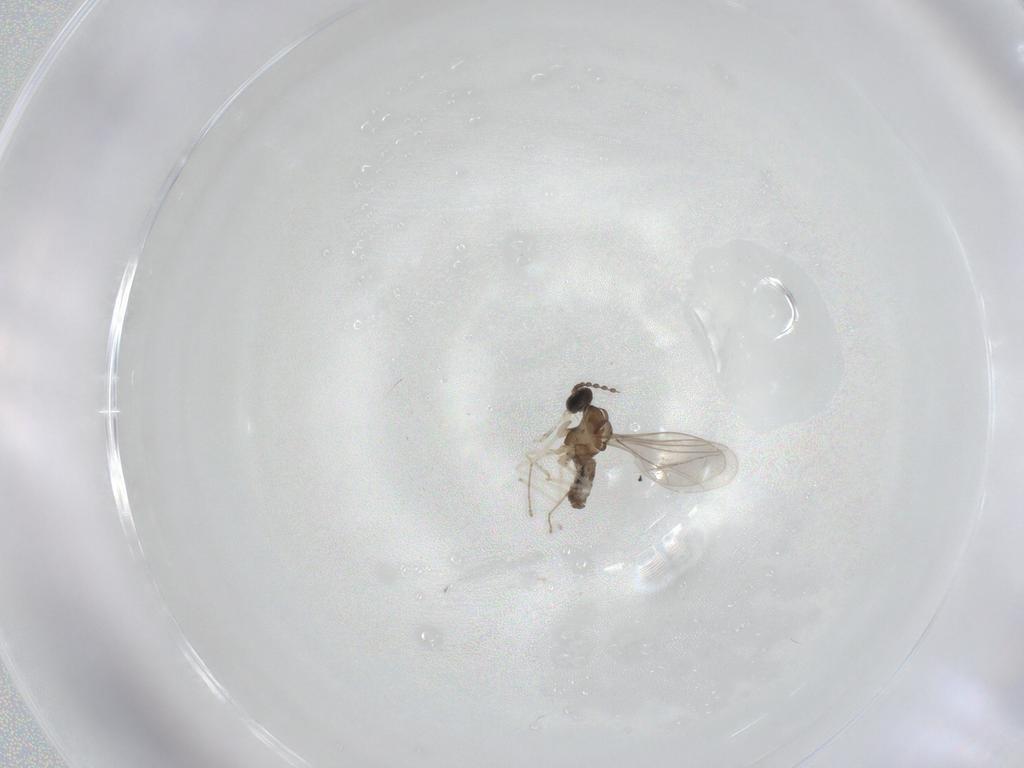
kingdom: Animalia
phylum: Arthropoda
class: Insecta
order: Diptera
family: Cecidomyiidae
